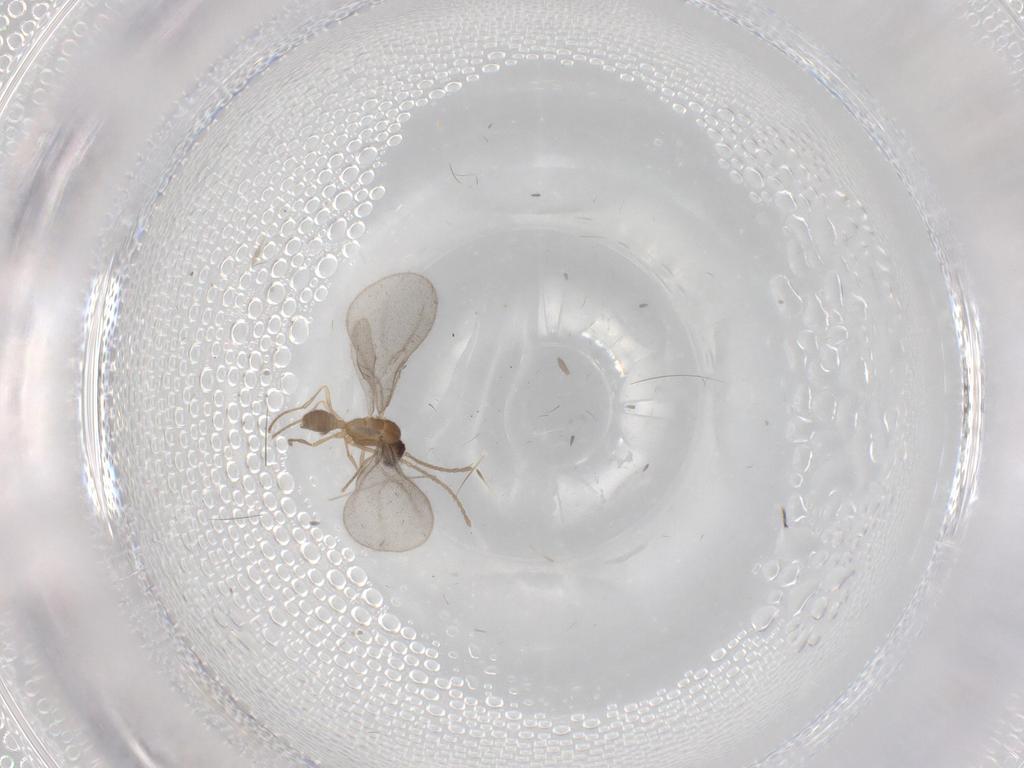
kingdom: Animalia
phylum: Arthropoda
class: Insecta
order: Hymenoptera
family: Formicidae
